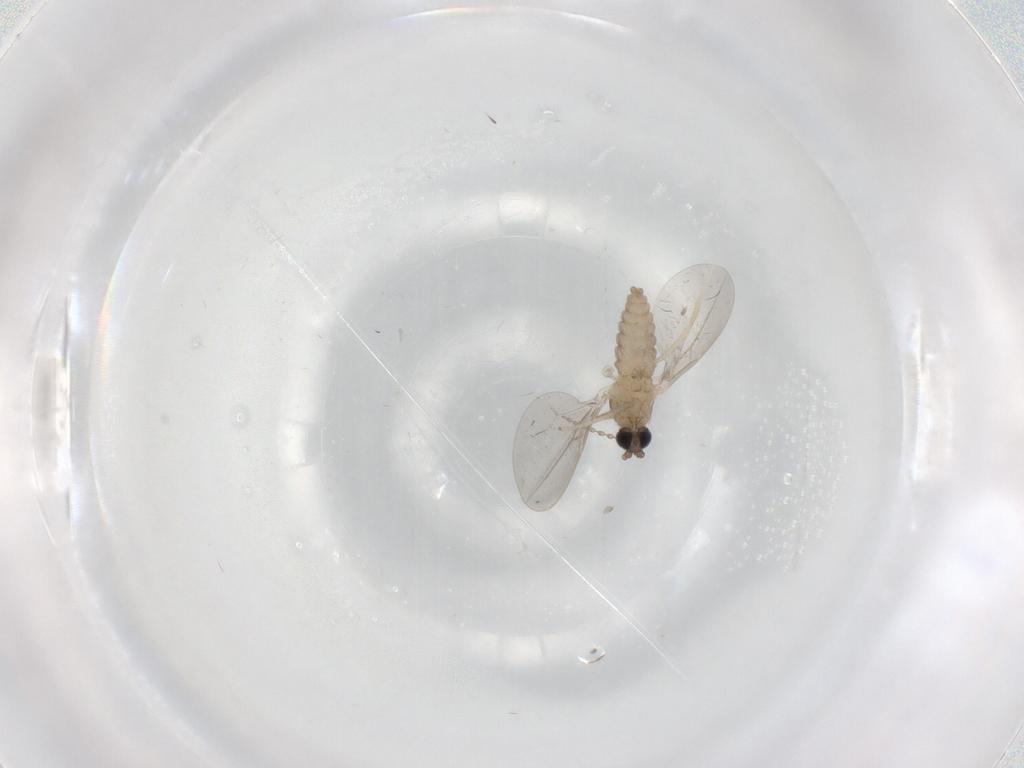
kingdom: Animalia
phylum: Arthropoda
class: Insecta
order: Diptera
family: Cecidomyiidae
